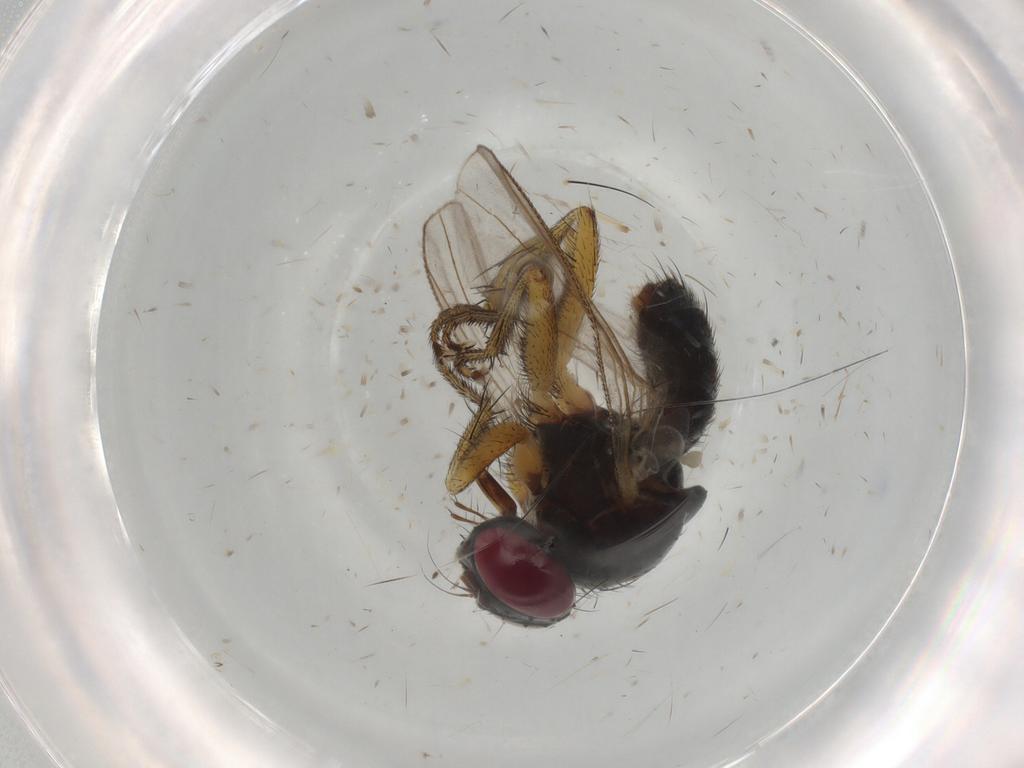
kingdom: Animalia
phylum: Arthropoda
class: Insecta
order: Diptera
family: Muscidae
